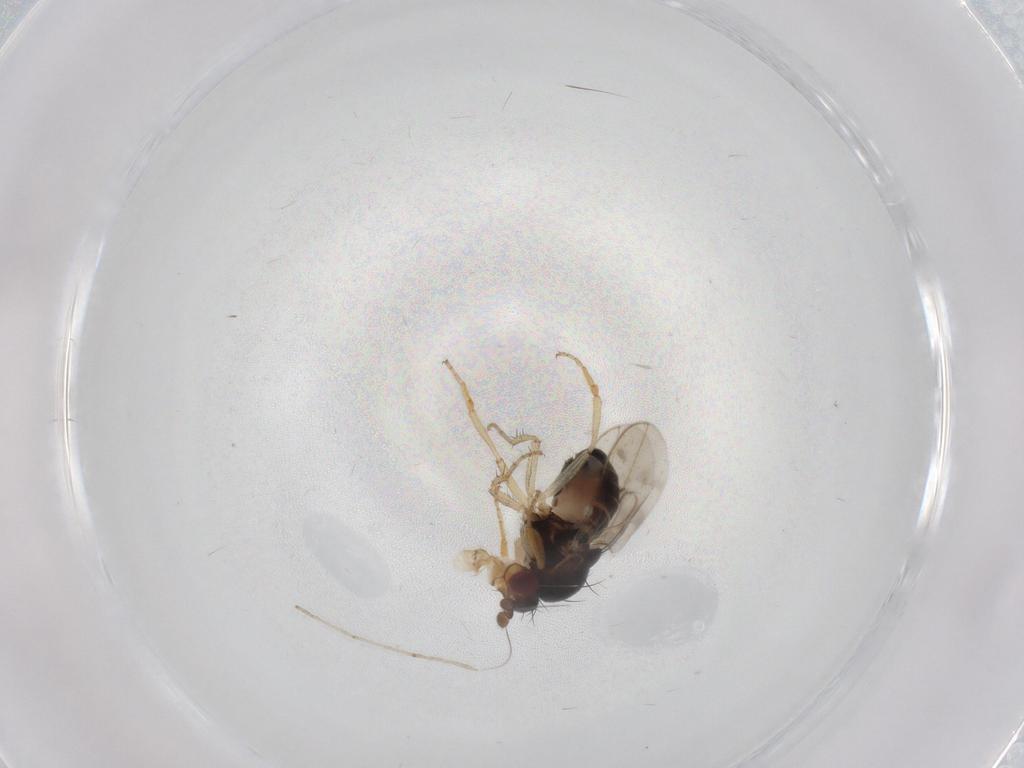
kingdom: Animalia
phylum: Arthropoda
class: Insecta
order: Diptera
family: Sphaeroceridae
